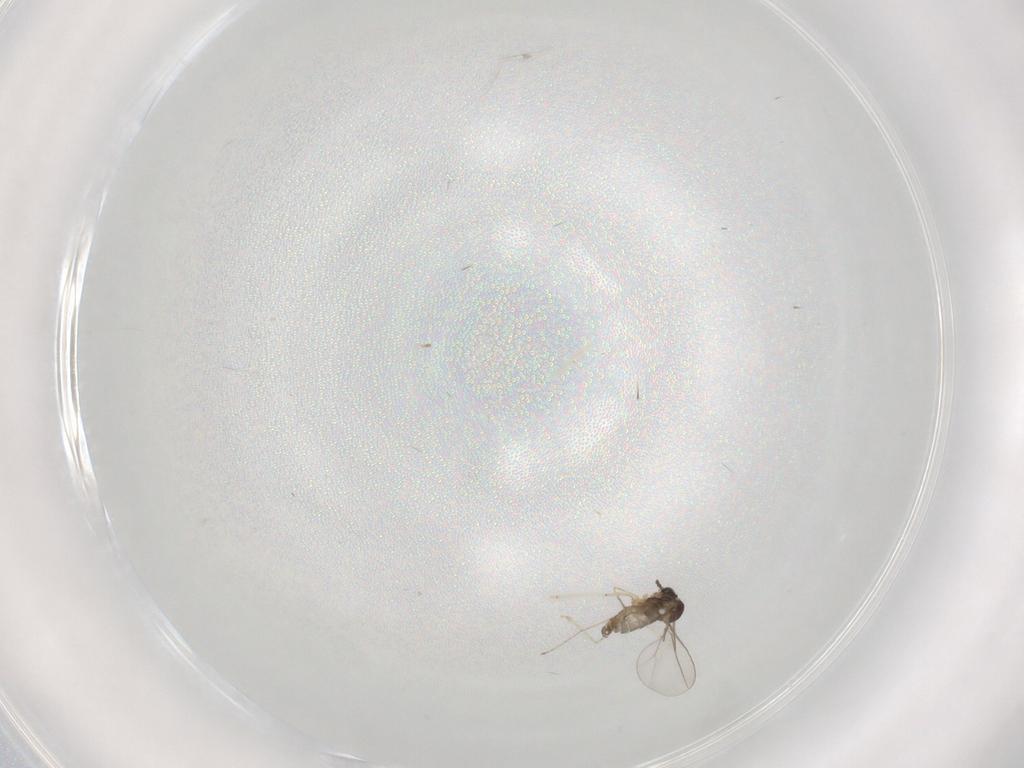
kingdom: Animalia
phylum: Arthropoda
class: Insecta
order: Diptera
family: Cecidomyiidae
